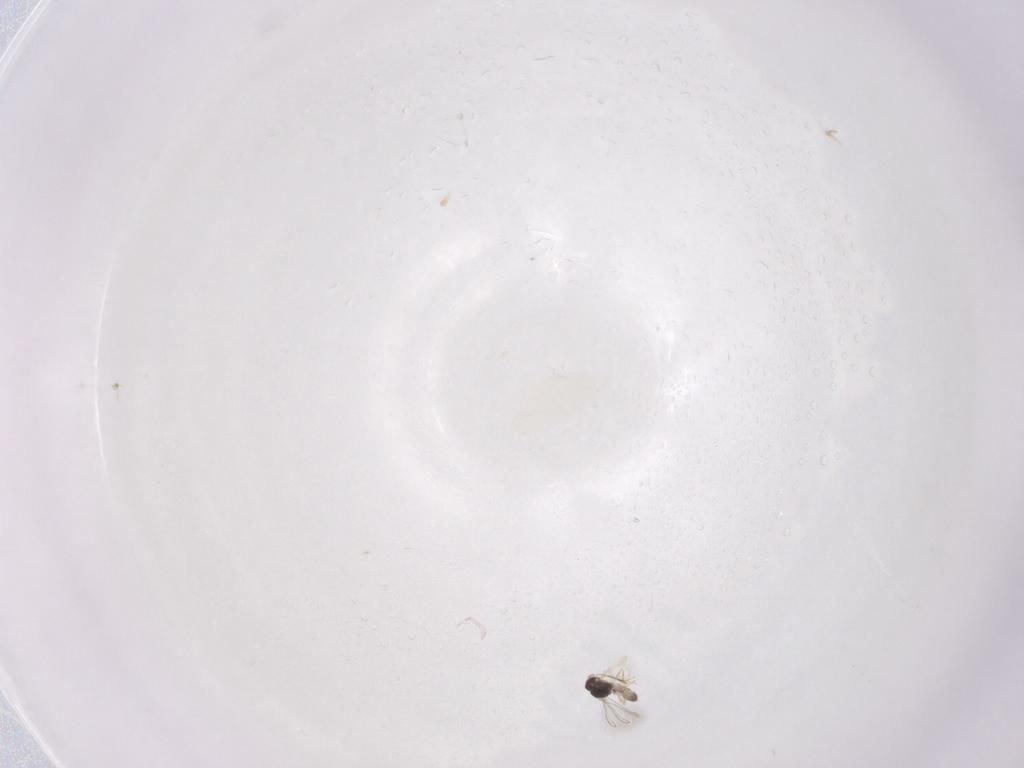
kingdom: Animalia
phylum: Arthropoda
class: Insecta
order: Hymenoptera
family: Mymaridae
